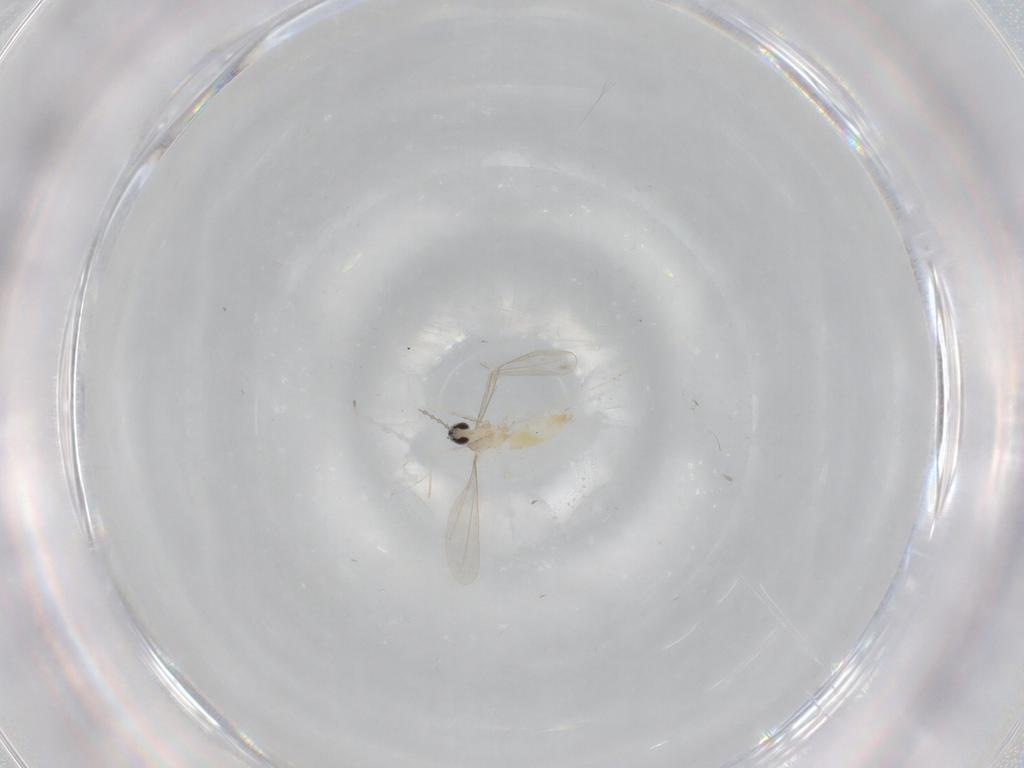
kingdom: Animalia
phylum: Arthropoda
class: Insecta
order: Diptera
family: Cecidomyiidae
